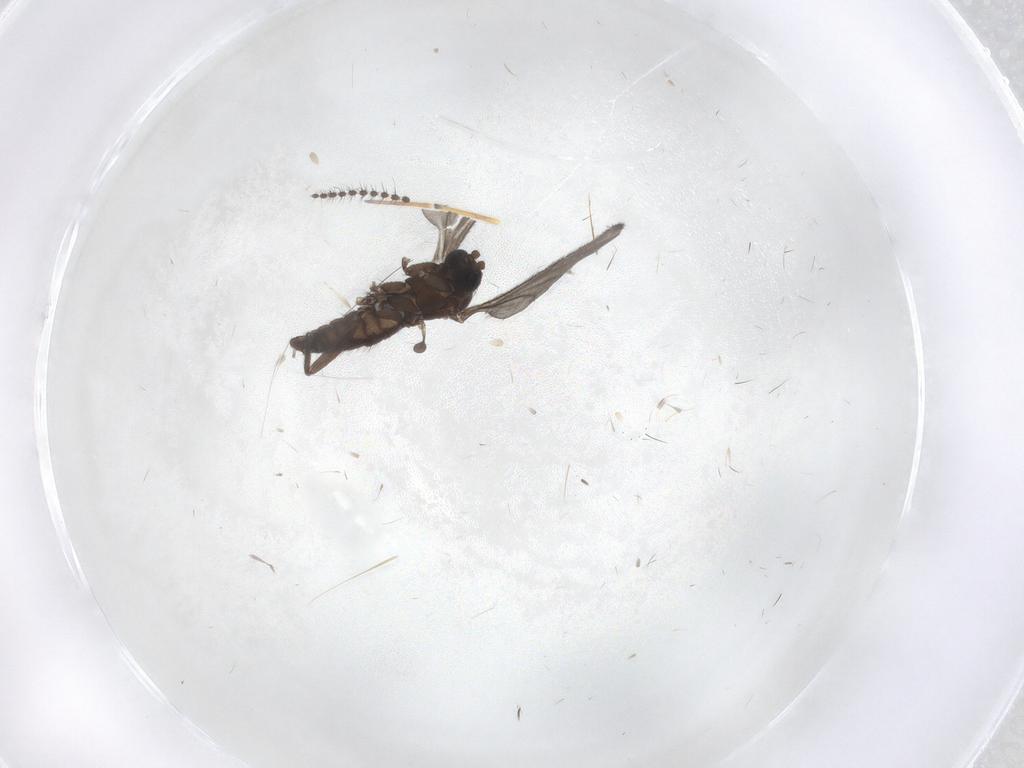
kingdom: Animalia
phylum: Arthropoda
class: Insecta
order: Diptera
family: Sciaridae
